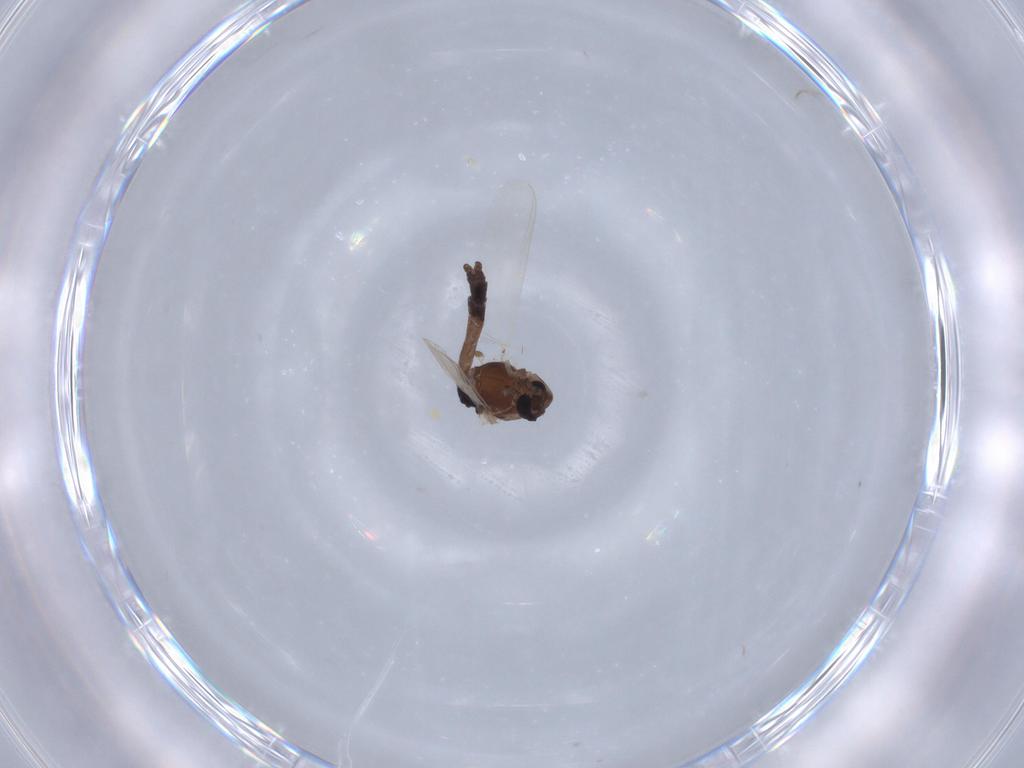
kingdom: Animalia
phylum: Arthropoda
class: Insecta
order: Diptera
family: Chironomidae
